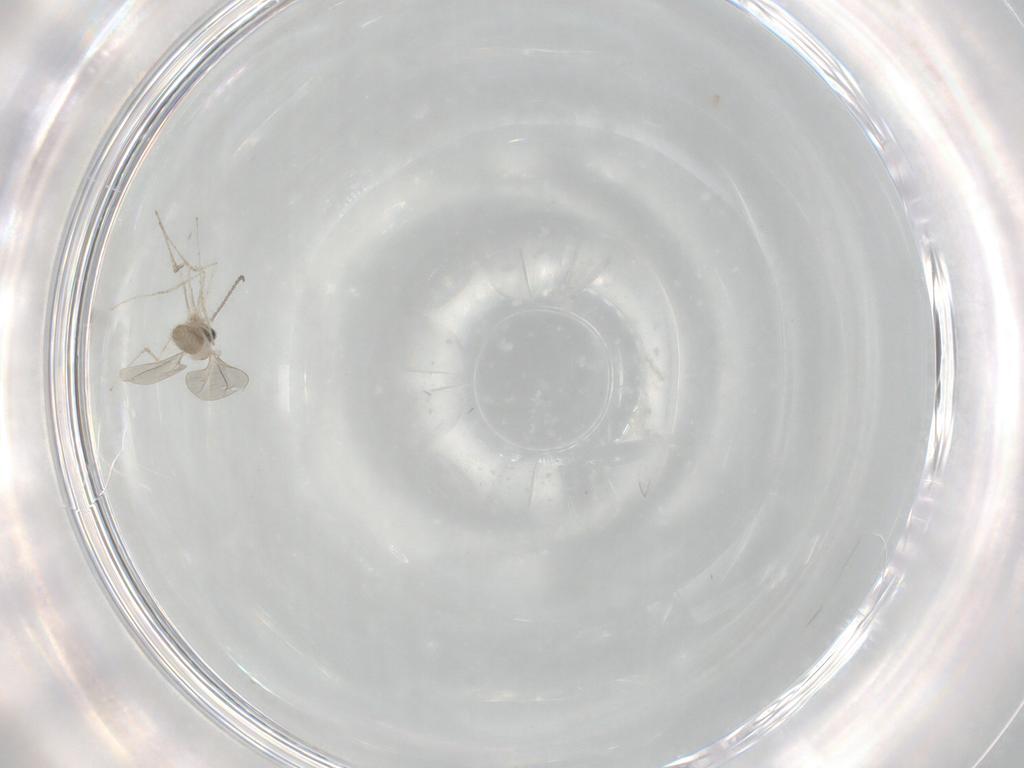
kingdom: Animalia
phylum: Arthropoda
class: Insecta
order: Diptera
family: Cecidomyiidae
